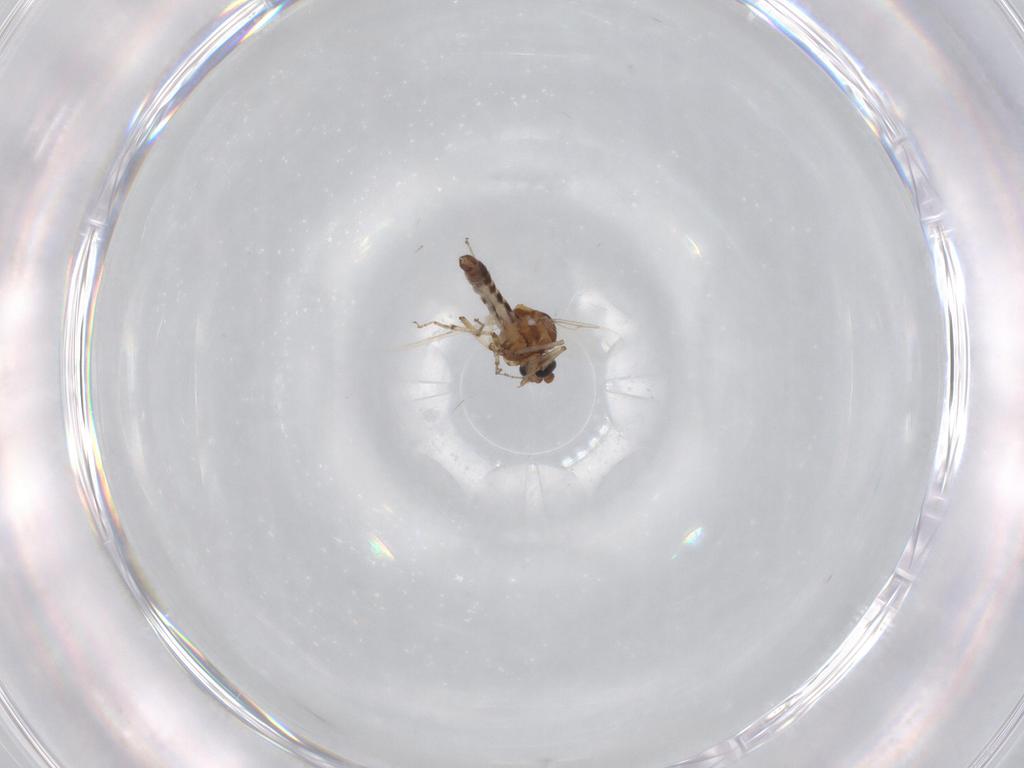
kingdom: Animalia
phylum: Arthropoda
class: Insecta
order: Diptera
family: Ceratopogonidae
